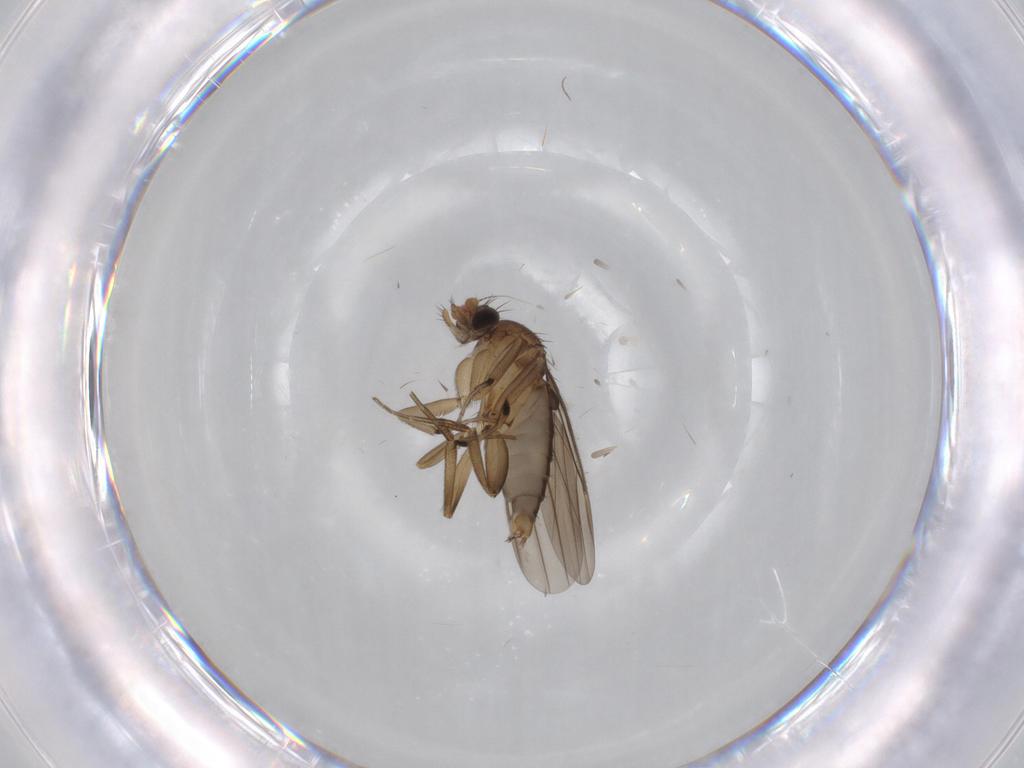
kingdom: Animalia
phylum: Arthropoda
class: Insecta
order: Diptera
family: Phoridae
